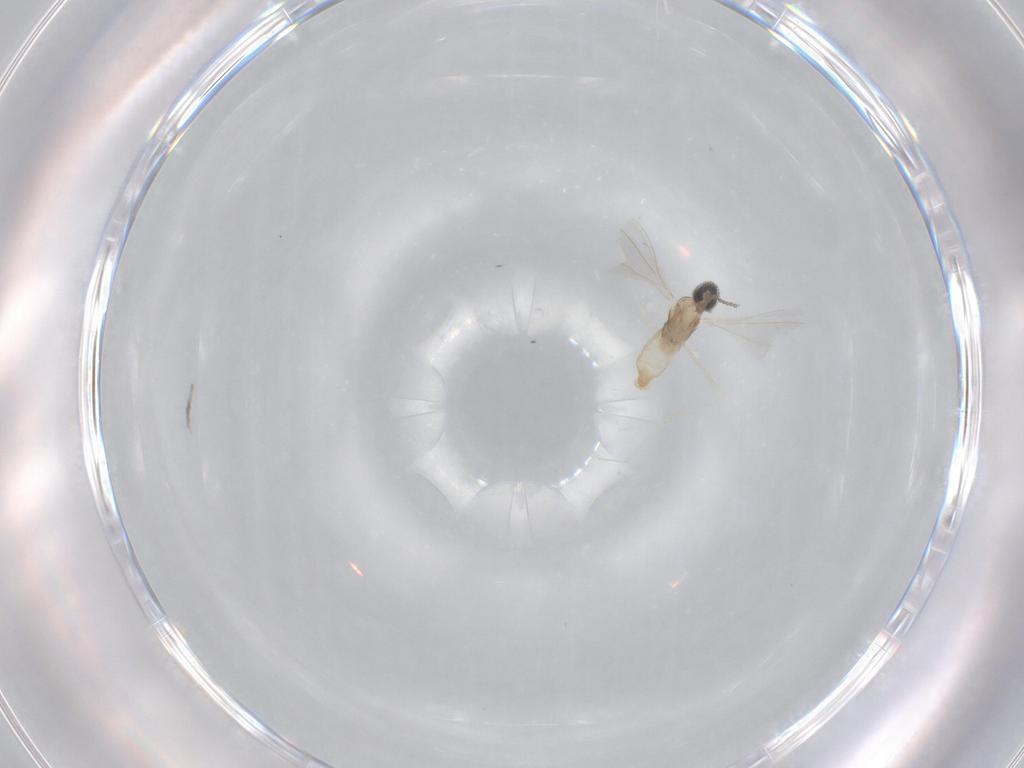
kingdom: Animalia
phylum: Arthropoda
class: Insecta
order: Diptera
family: Cecidomyiidae
